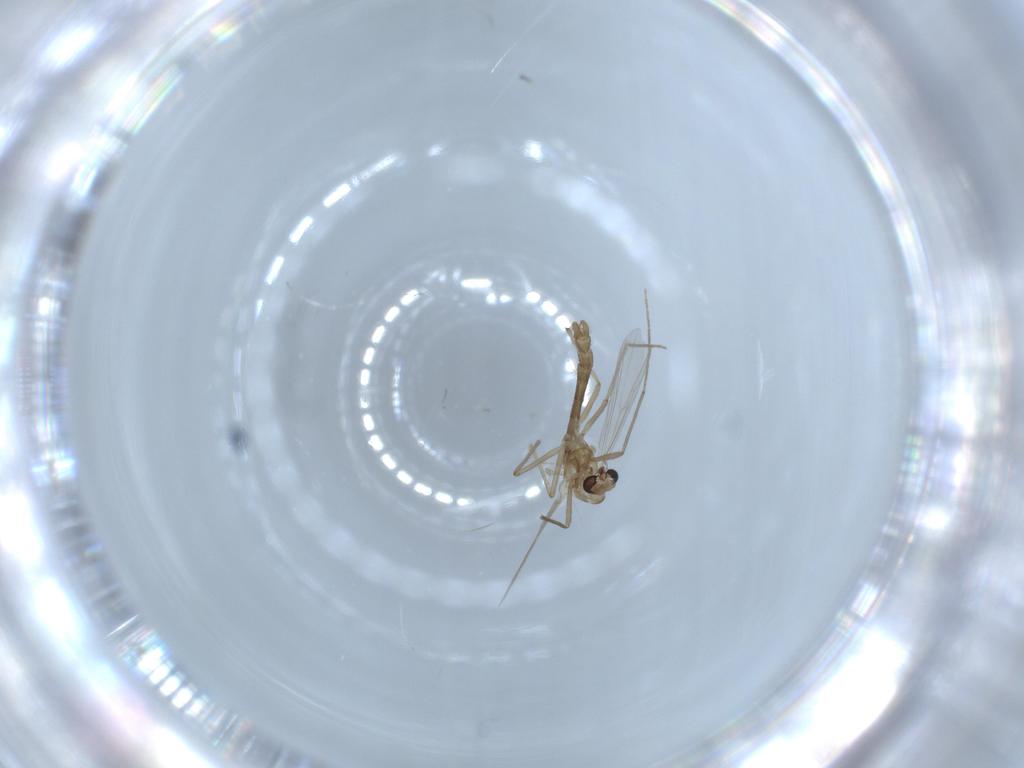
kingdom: Animalia
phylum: Arthropoda
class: Insecta
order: Diptera
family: Chironomidae
